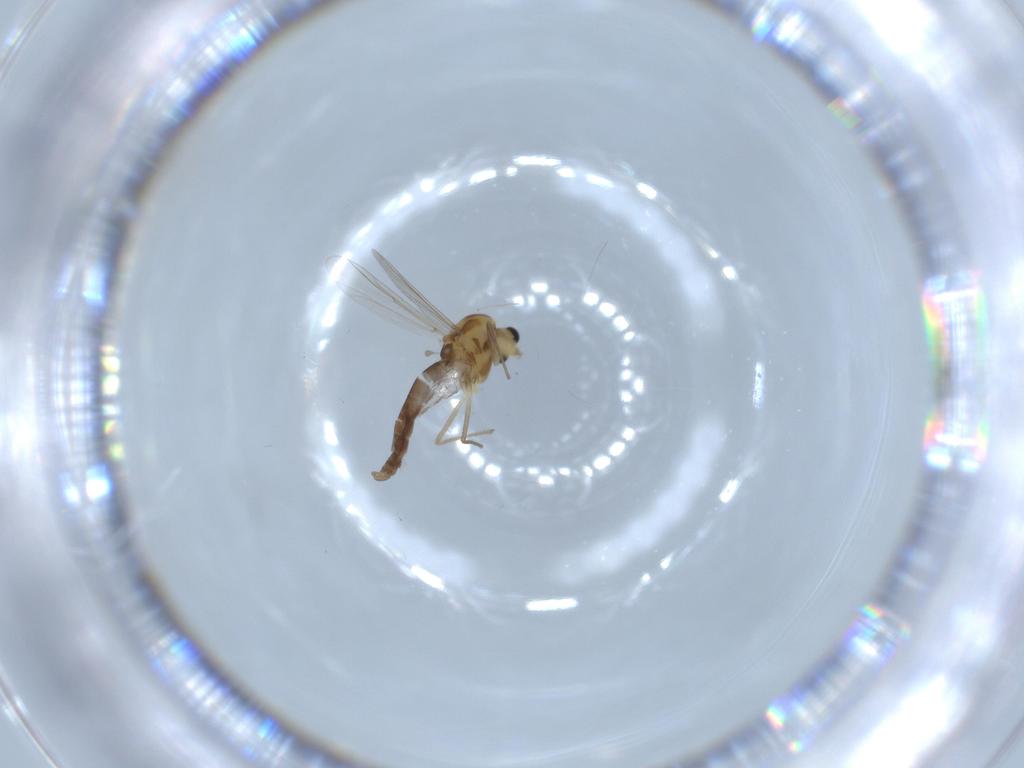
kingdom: Animalia
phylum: Arthropoda
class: Insecta
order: Diptera
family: Chironomidae
